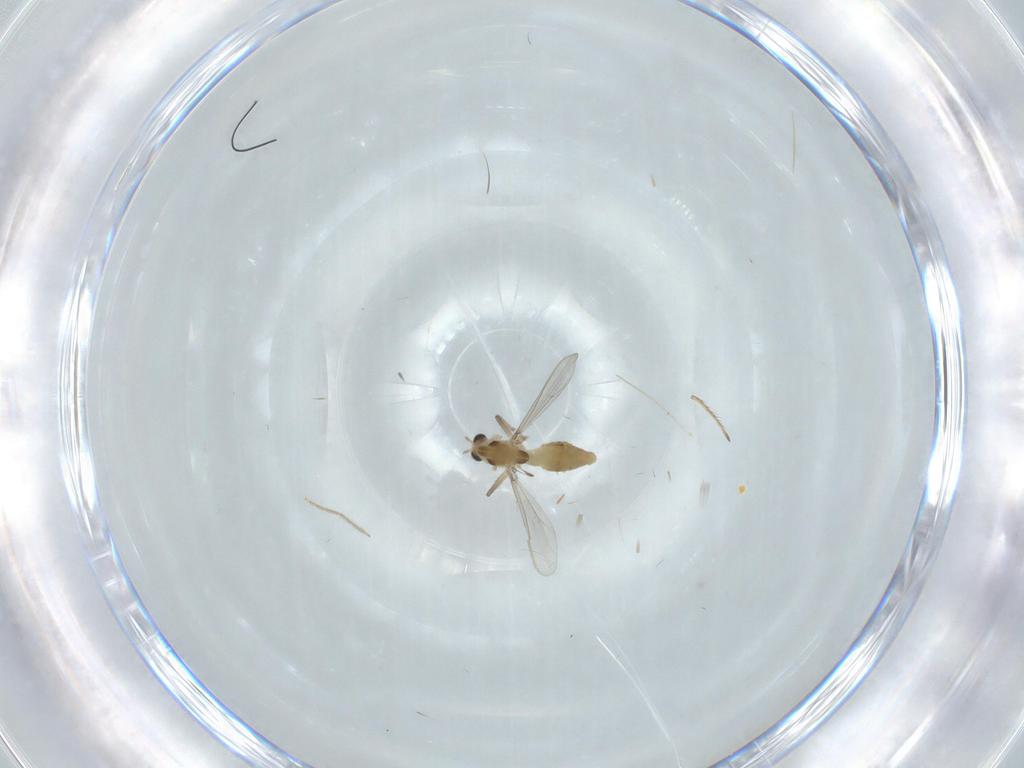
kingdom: Animalia
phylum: Arthropoda
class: Insecta
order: Diptera
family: Chironomidae
